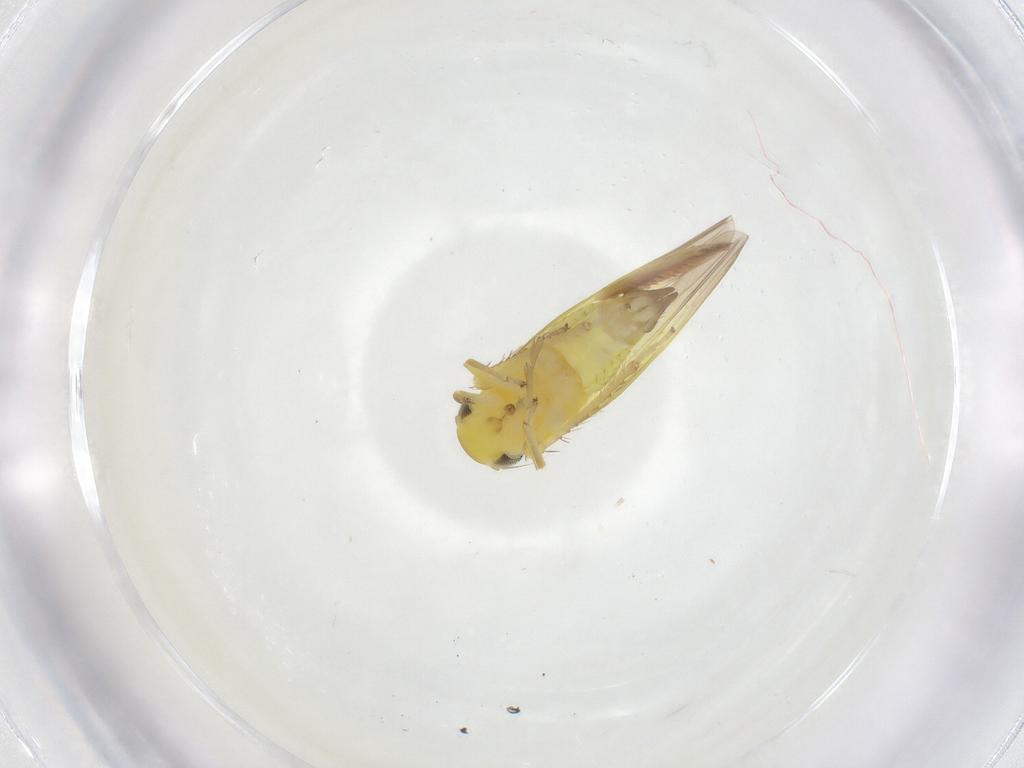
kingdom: Animalia
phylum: Arthropoda
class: Insecta
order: Hemiptera
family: Cicadellidae
